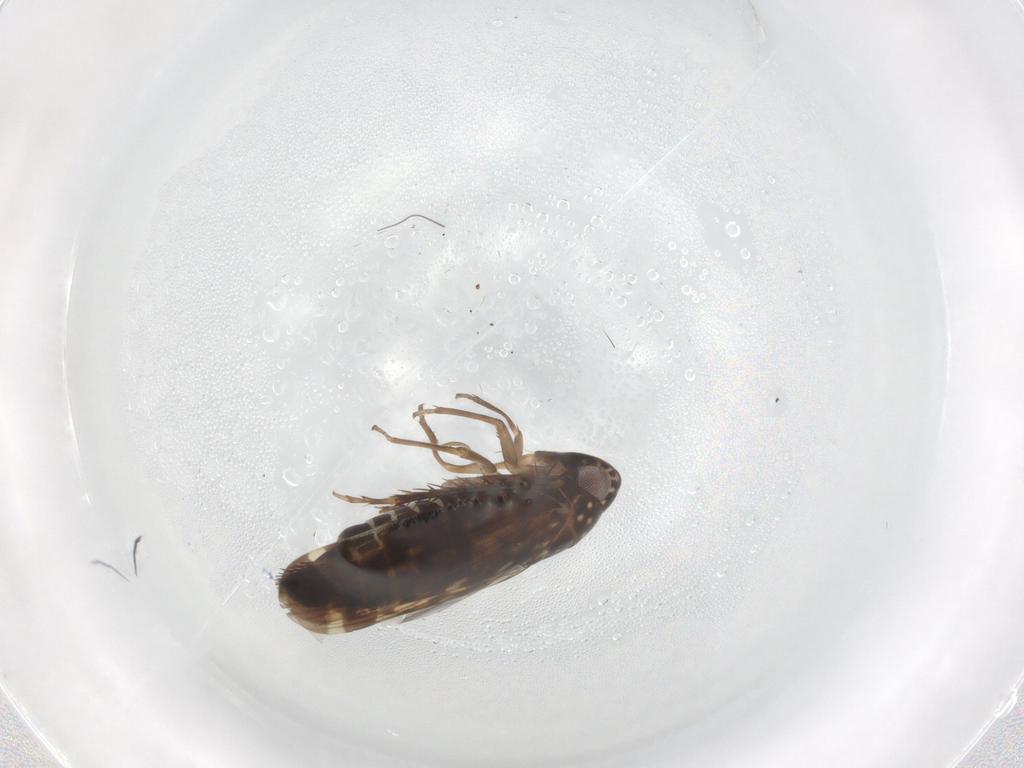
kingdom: Animalia
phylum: Arthropoda
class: Insecta
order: Hemiptera
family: Cicadellidae
